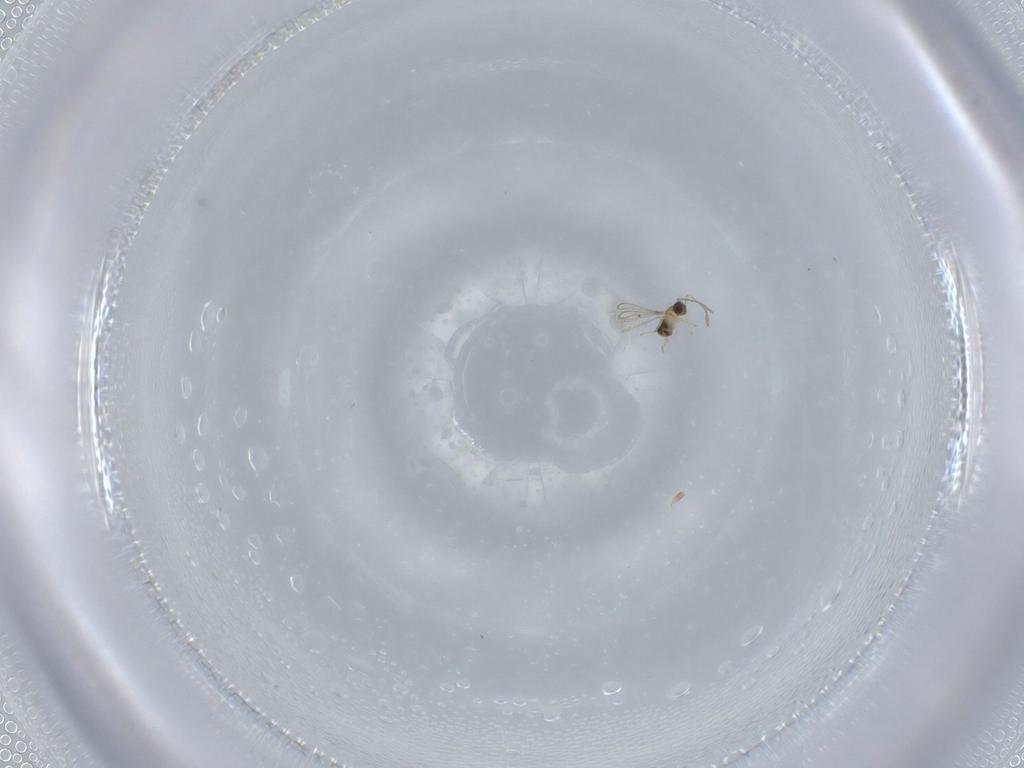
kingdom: Animalia
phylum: Arthropoda
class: Insecta
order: Hymenoptera
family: Mymaridae
